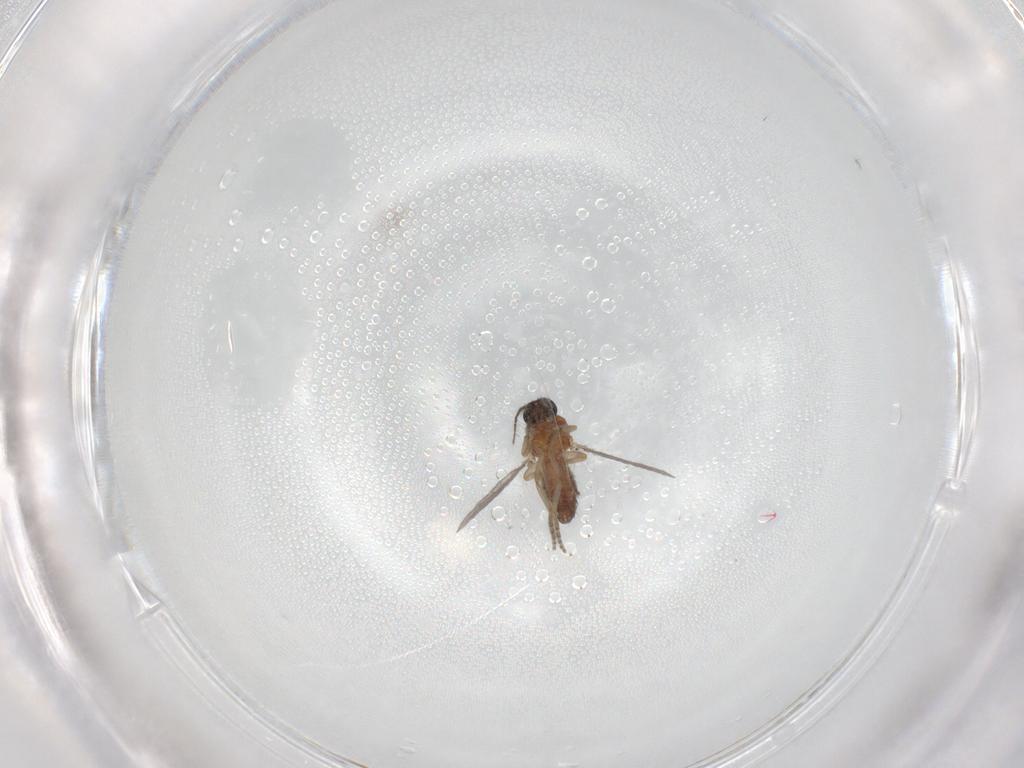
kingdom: Animalia
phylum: Arthropoda
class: Insecta
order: Diptera
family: Ceratopogonidae
